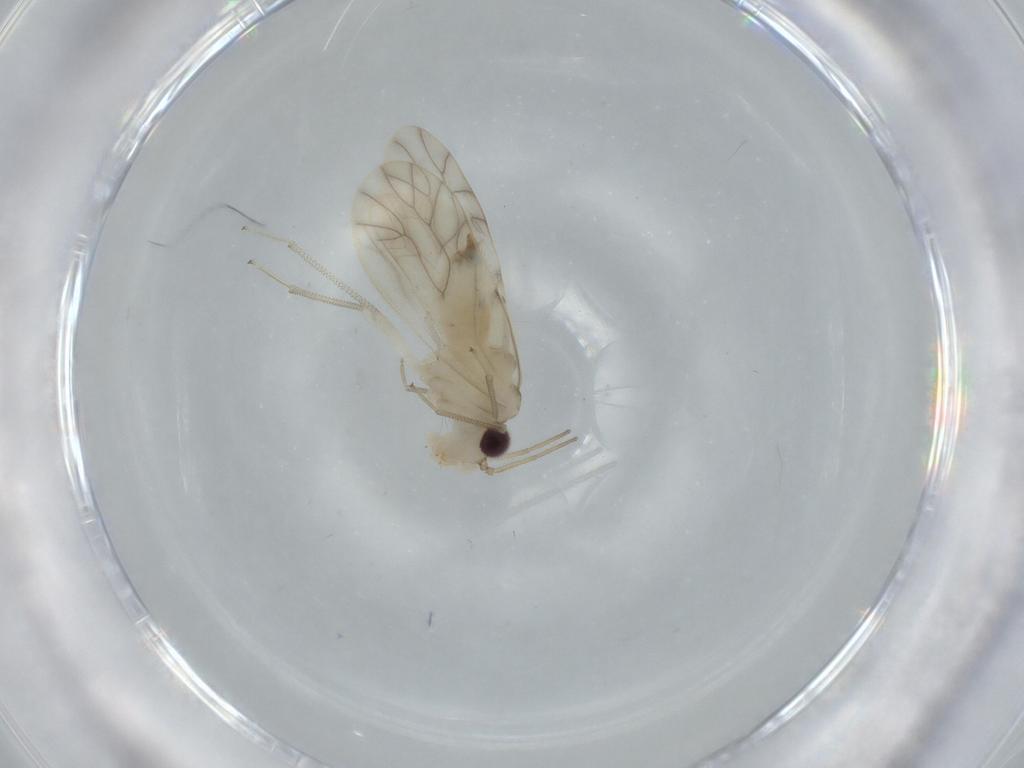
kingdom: Animalia
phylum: Arthropoda
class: Insecta
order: Psocodea
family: Caeciliusidae
